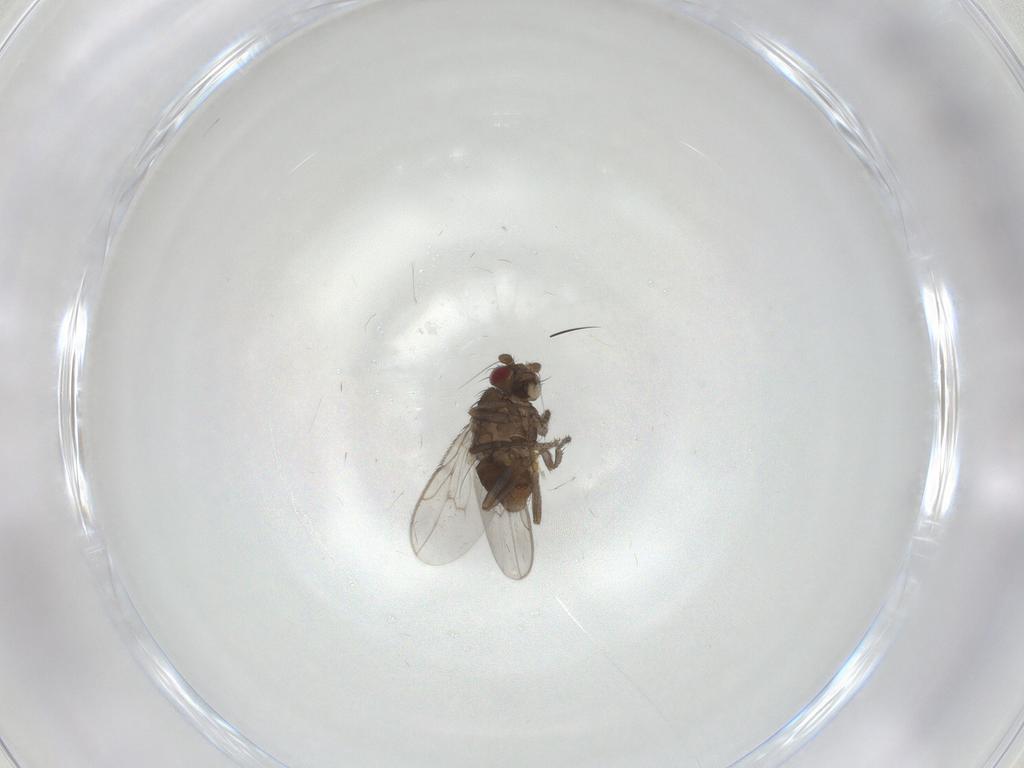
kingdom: Animalia
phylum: Arthropoda
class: Insecta
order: Diptera
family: Sphaeroceridae
